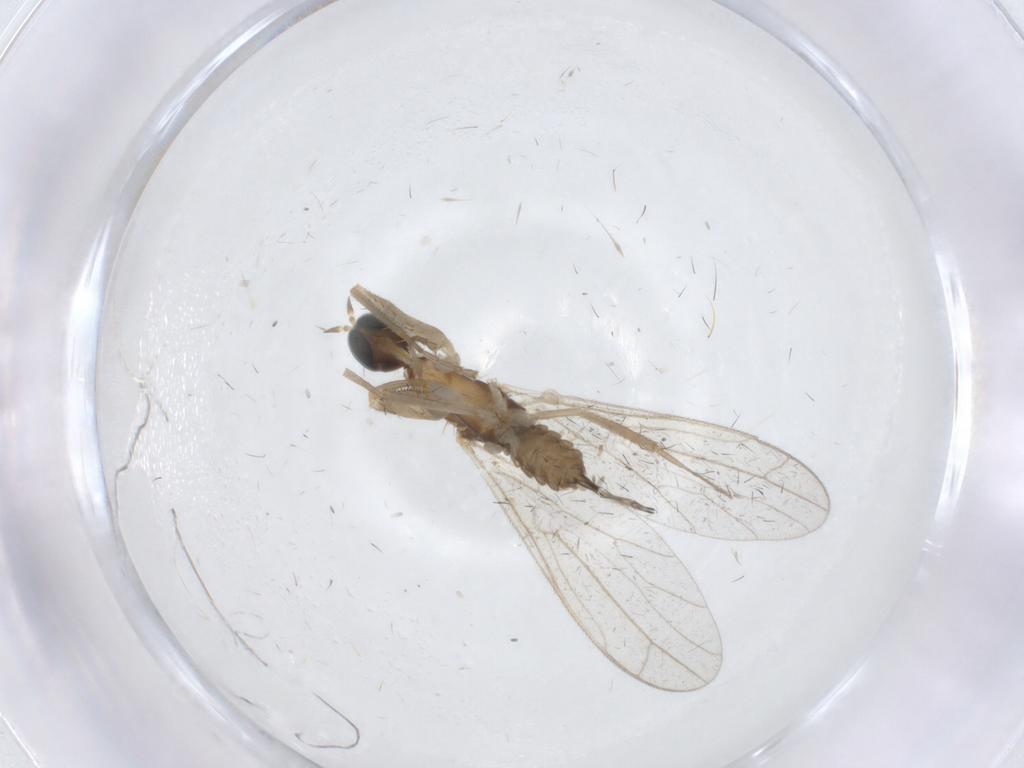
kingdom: Animalia
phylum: Arthropoda
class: Insecta
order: Diptera
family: Empididae
